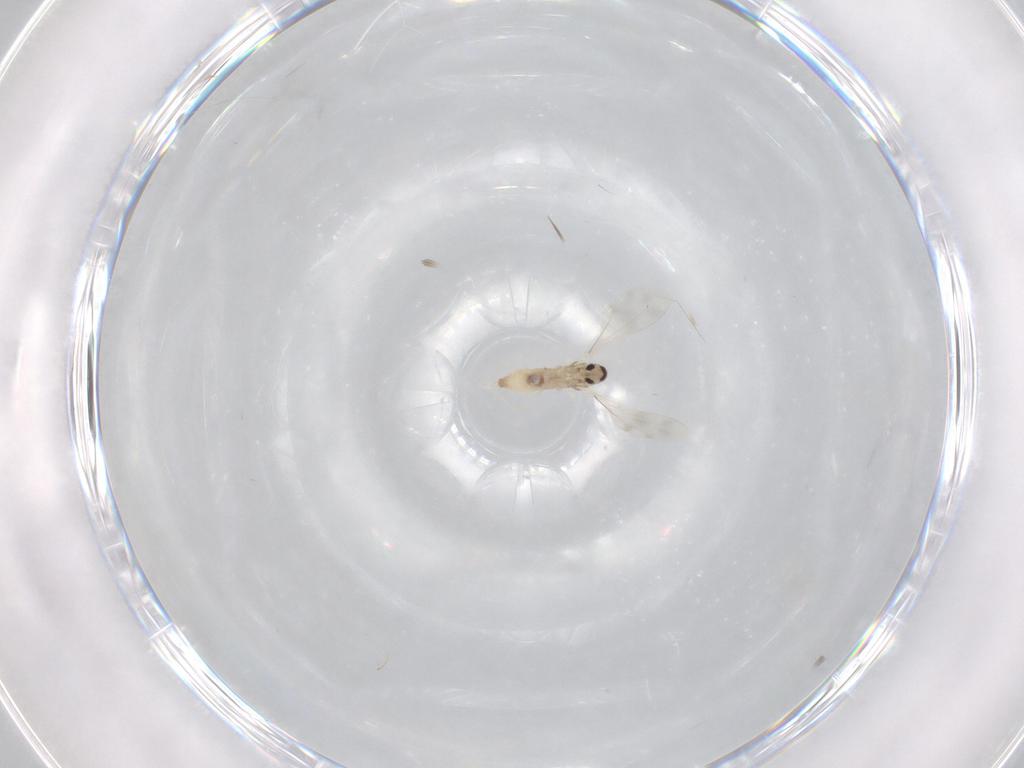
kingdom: Animalia
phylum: Arthropoda
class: Insecta
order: Diptera
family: Cecidomyiidae
